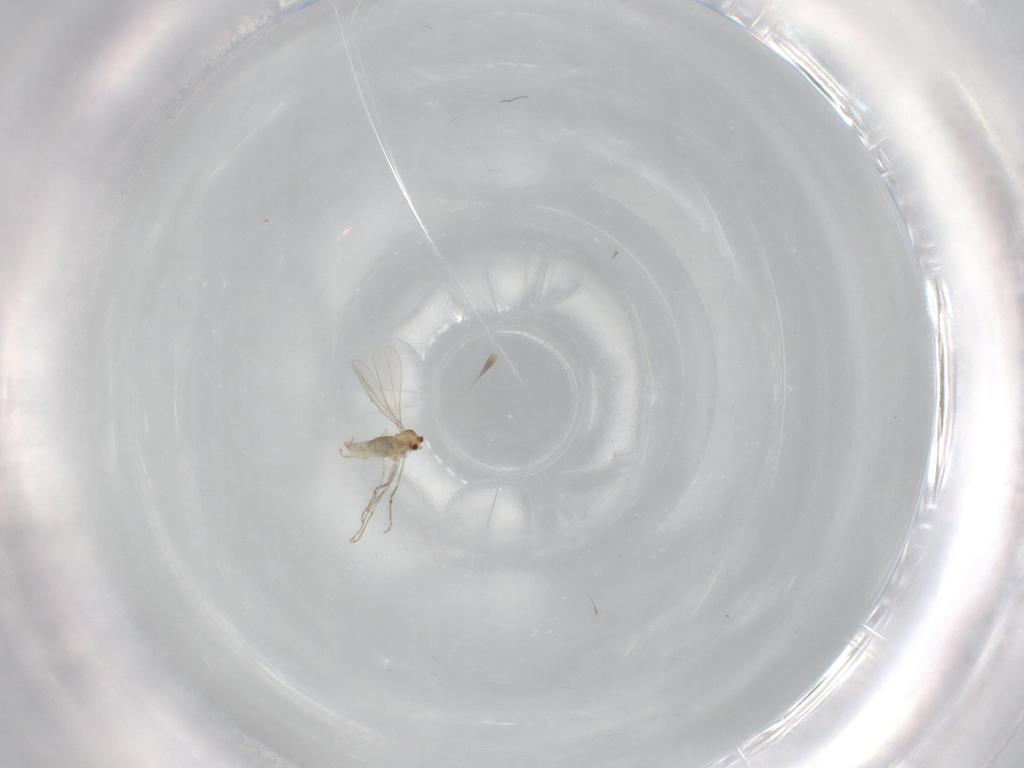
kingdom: Animalia
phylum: Arthropoda
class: Insecta
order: Diptera
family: Cecidomyiidae
